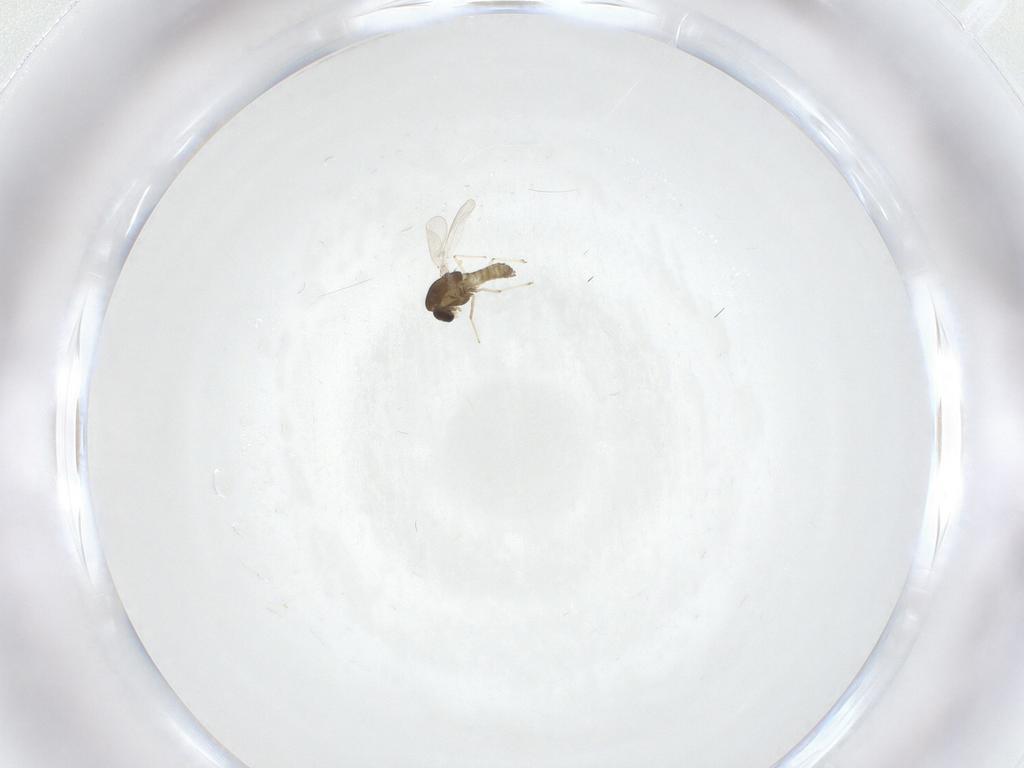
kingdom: Animalia
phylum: Arthropoda
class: Insecta
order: Diptera
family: Chironomidae
